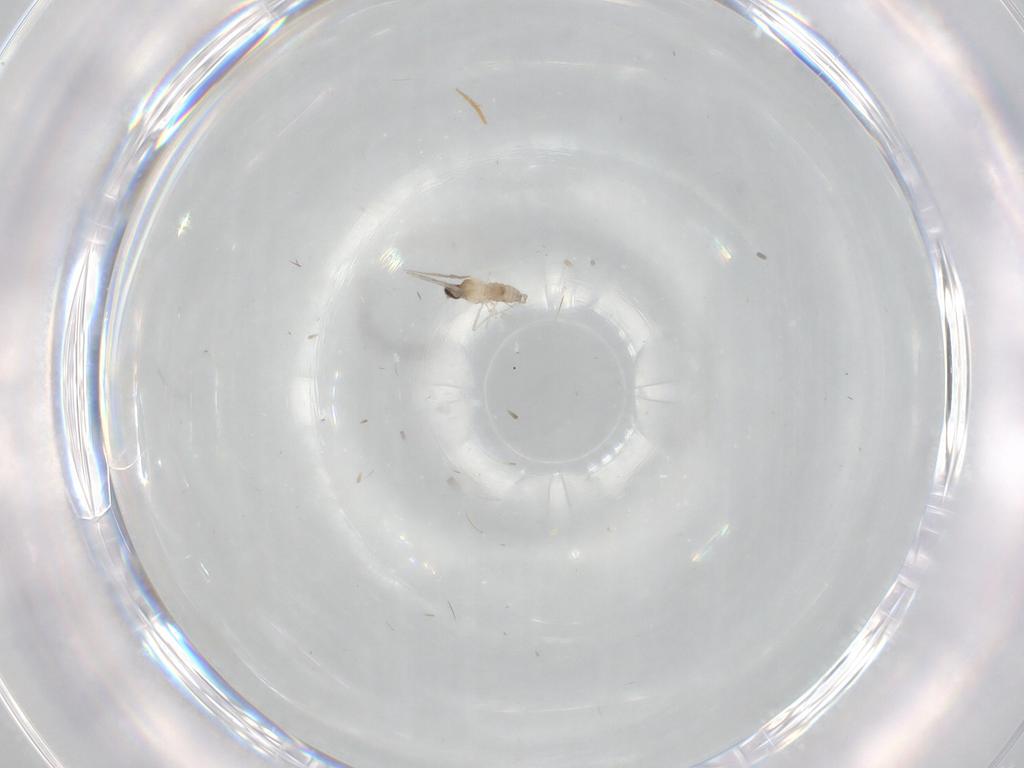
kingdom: Animalia
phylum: Arthropoda
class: Insecta
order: Diptera
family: Cecidomyiidae
